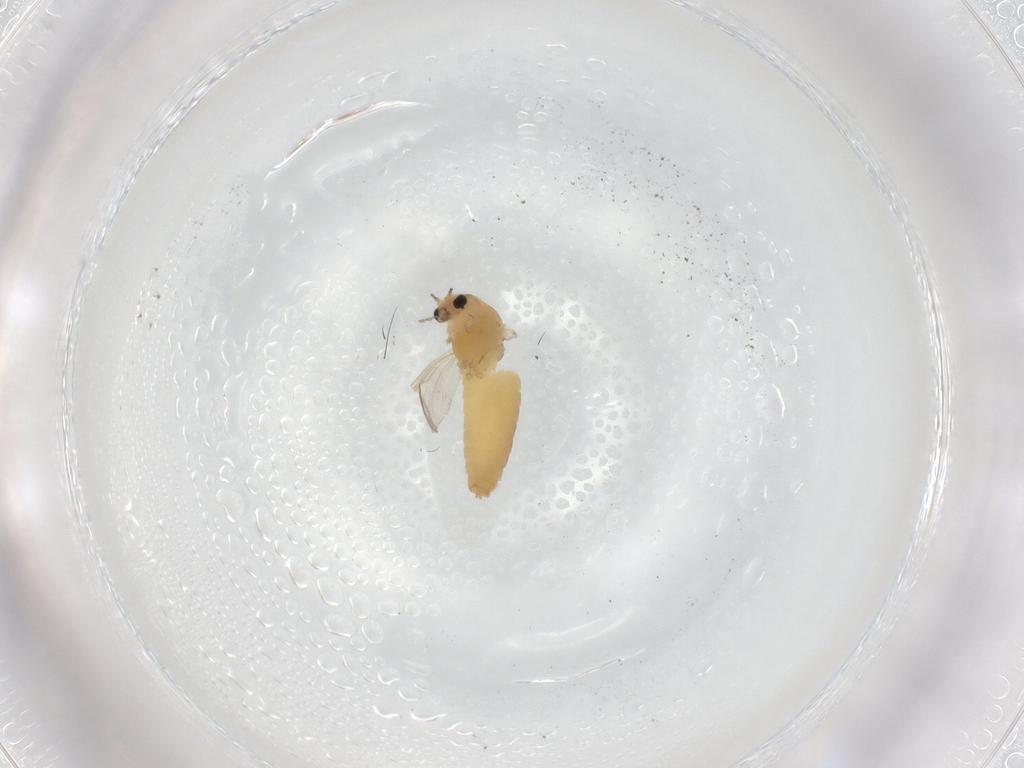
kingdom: Animalia
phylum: Arthropoda
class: Insecta
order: Diptera
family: Chironomidae
